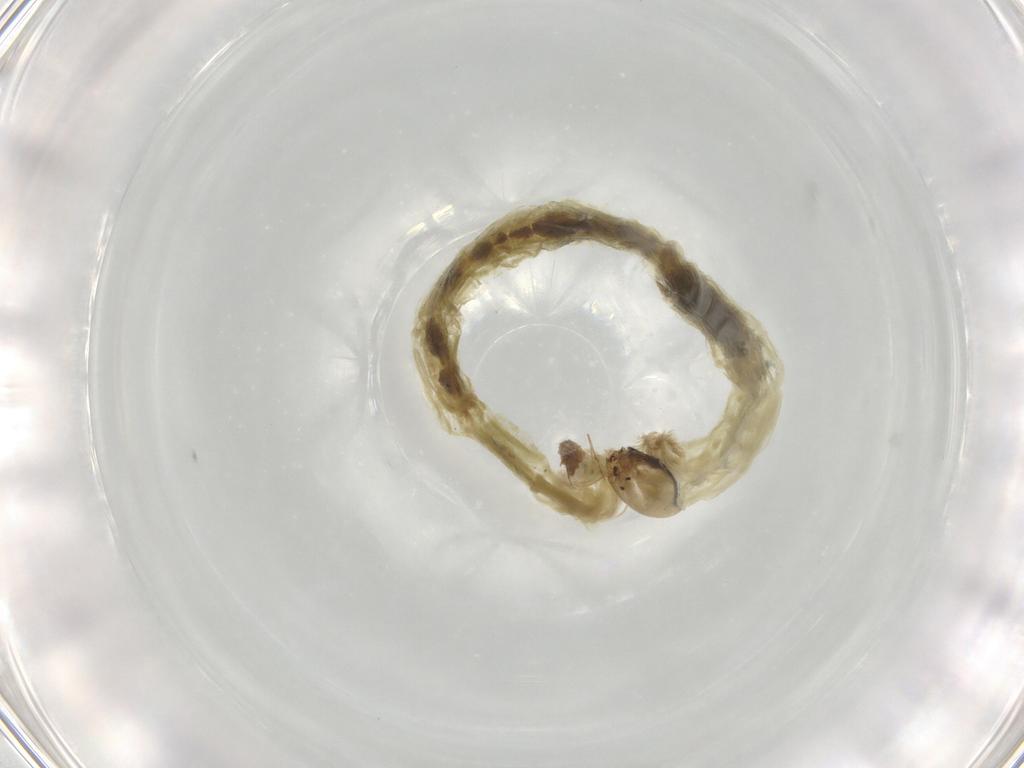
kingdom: Animalia
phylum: Arthropoda
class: Insecta
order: Diptera
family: Chironomidae
